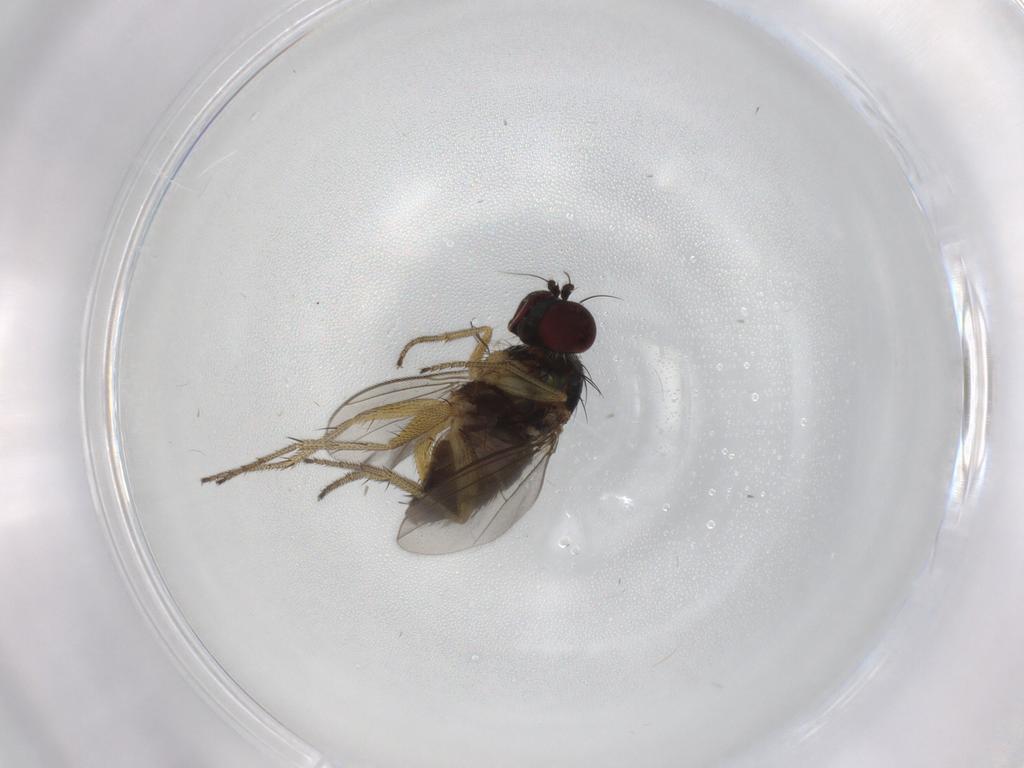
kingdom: Animalia
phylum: Arthropoda
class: Insecta
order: Diptera
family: Chironomidae
